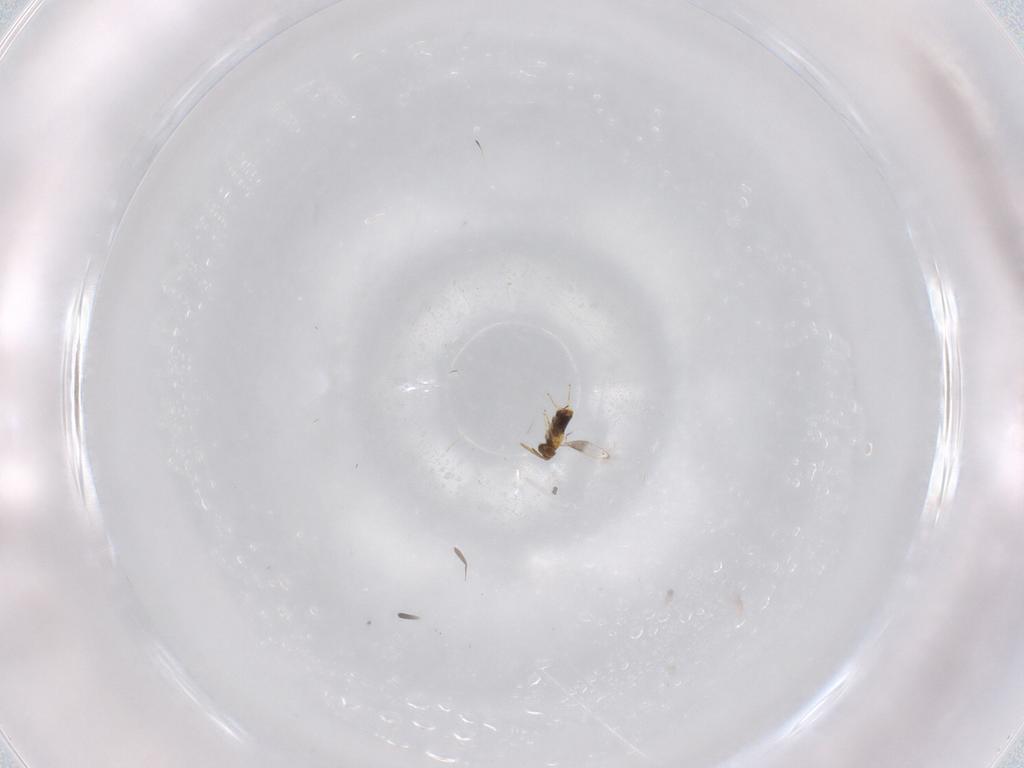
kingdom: Animalia
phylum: Arthropoda
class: Insecta
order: Hymenoptera
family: Aphelinidae
